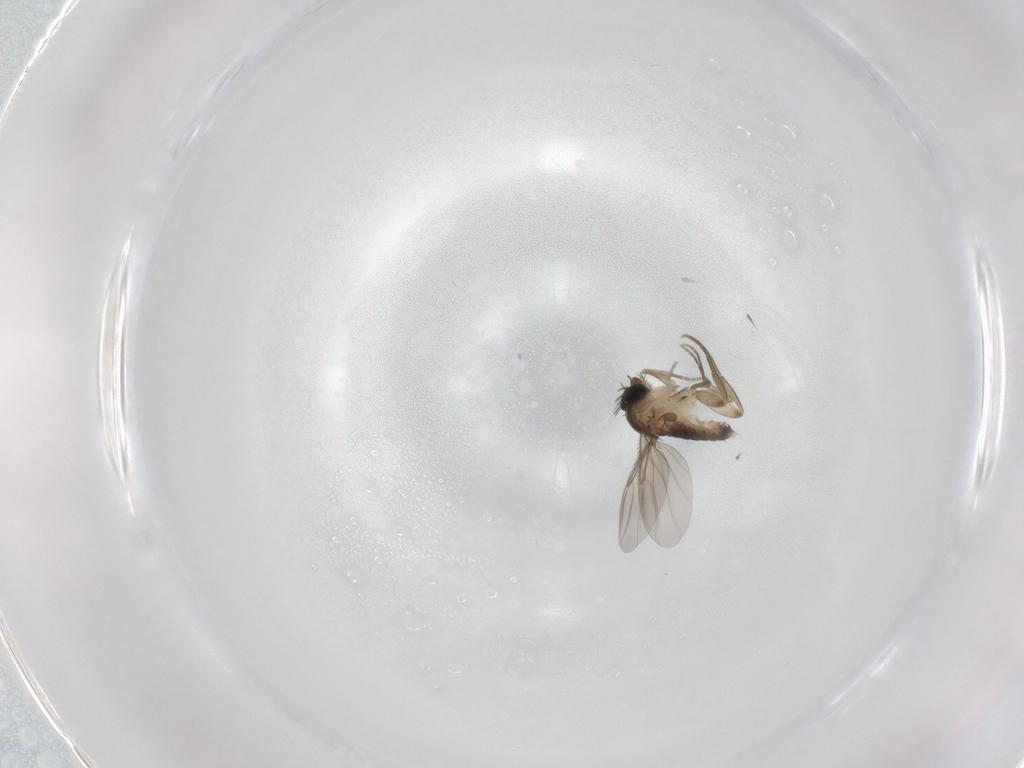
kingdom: Animalia
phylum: Arthropoda
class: Insecta
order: Diptera
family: Phoridae
